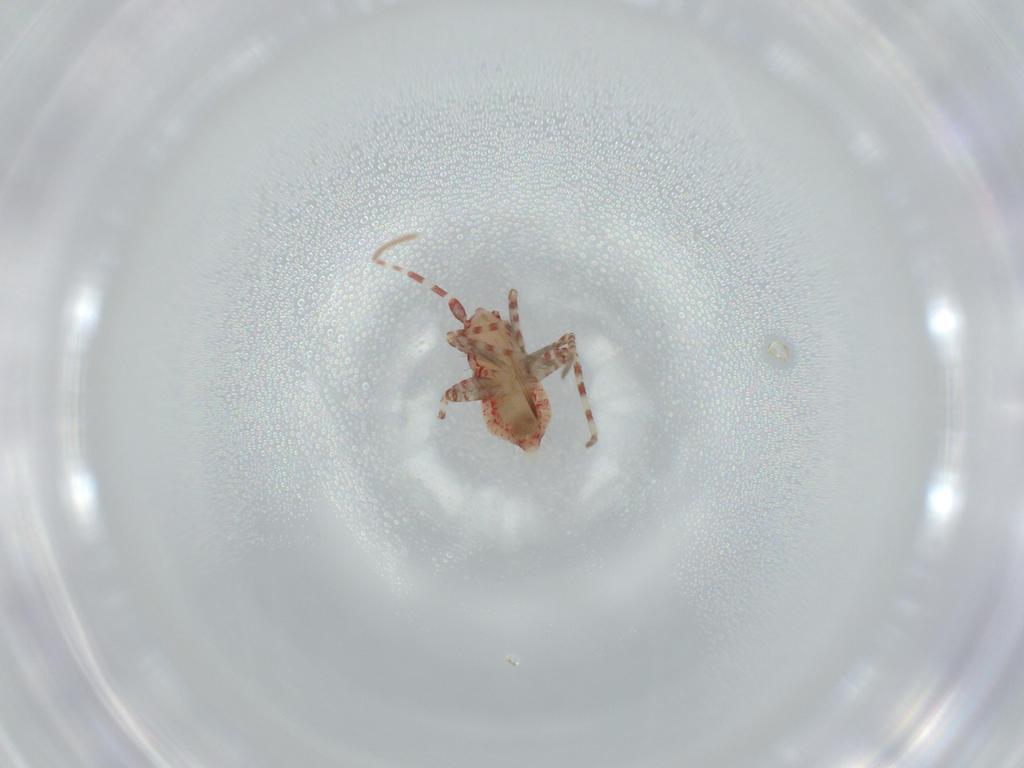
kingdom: Animalia
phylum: Arthropoda
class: Insecta
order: Hemiptera
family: Miridae
